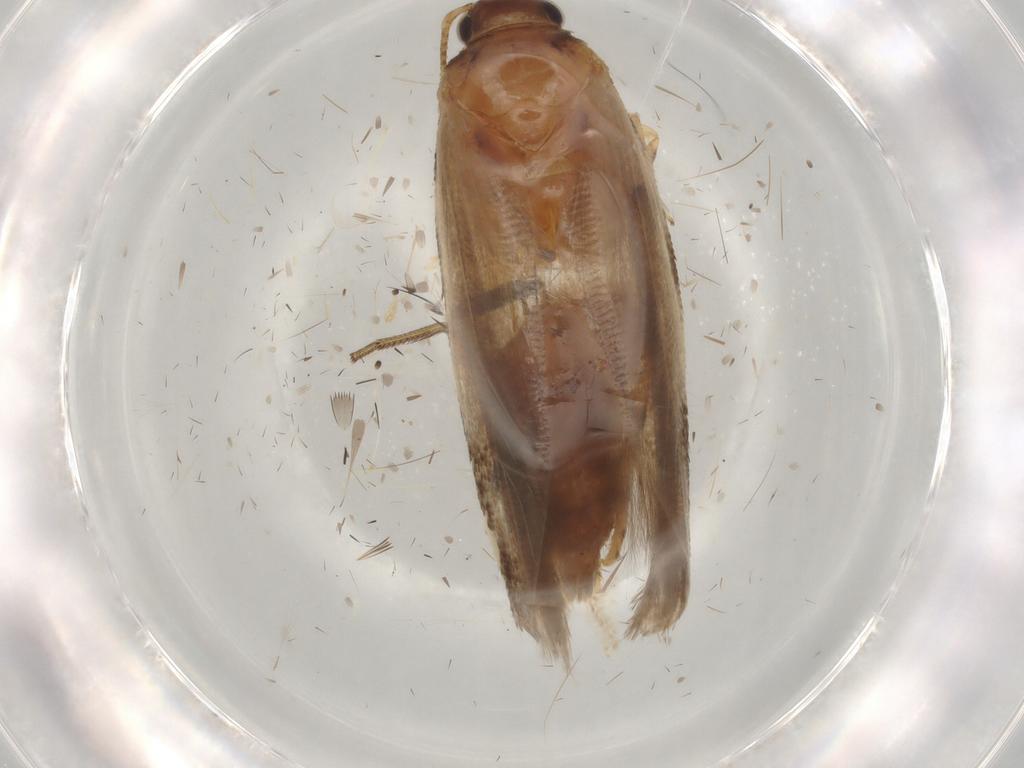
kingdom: Animalia
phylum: Arthropoda
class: Insecta
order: Lepidoptera
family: Gelechiidae
